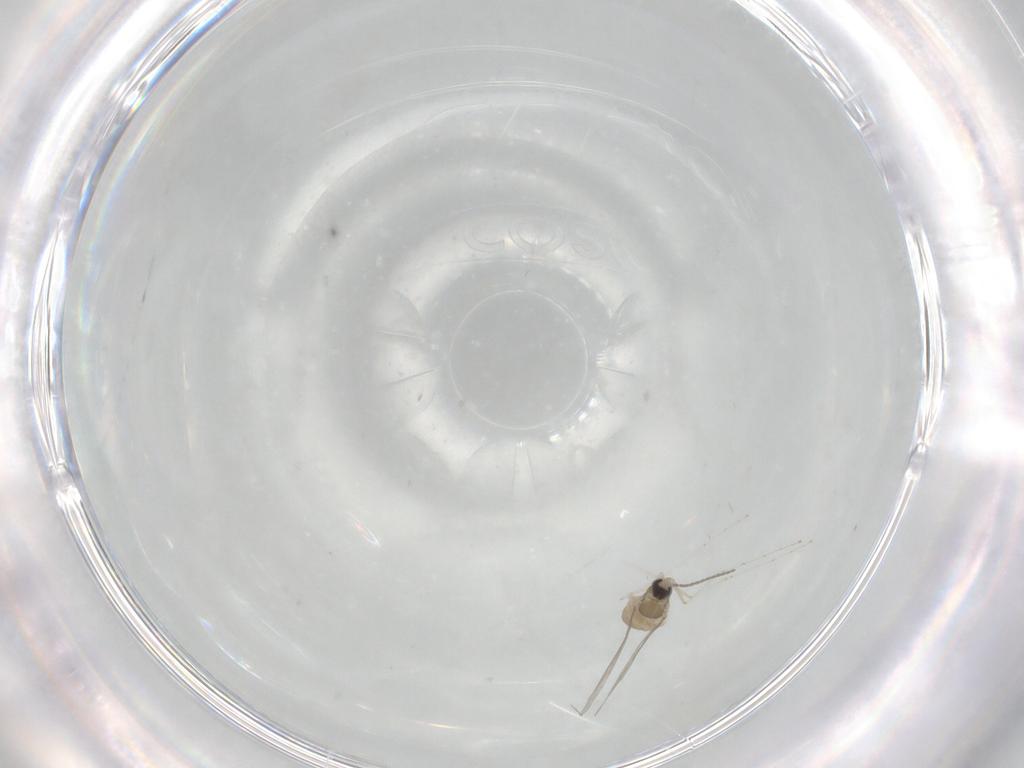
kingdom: Animalia
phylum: Arthropoda
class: Insecta
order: Diptera
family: Cecidomyiidae
